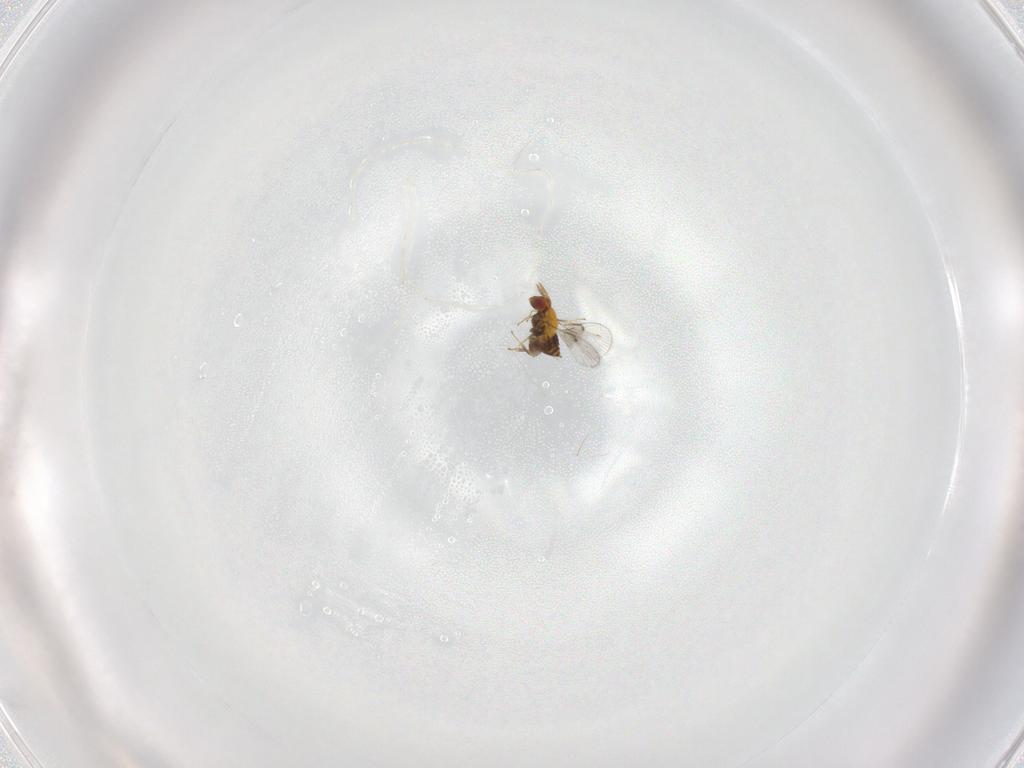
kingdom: Animalia
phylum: Arthropoda
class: Insecta
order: Hymenoptera
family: Trichogrammatidae
